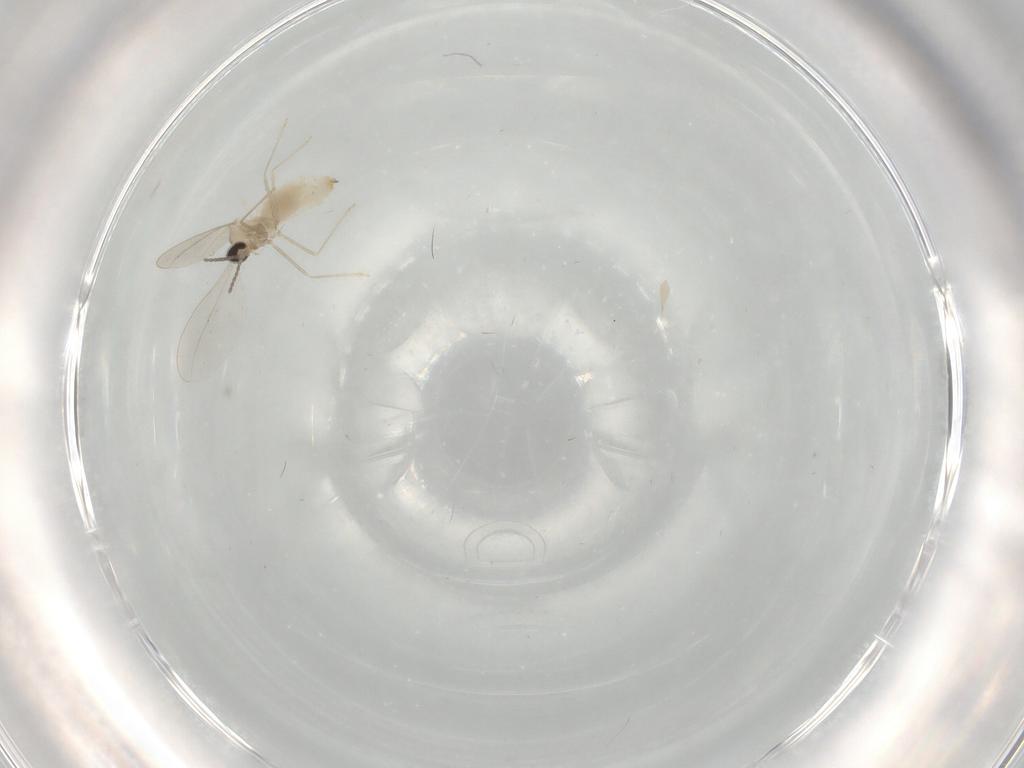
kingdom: Animalia
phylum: Arthropoda
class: Insecta
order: Diptera
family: Cecidomyiidae
